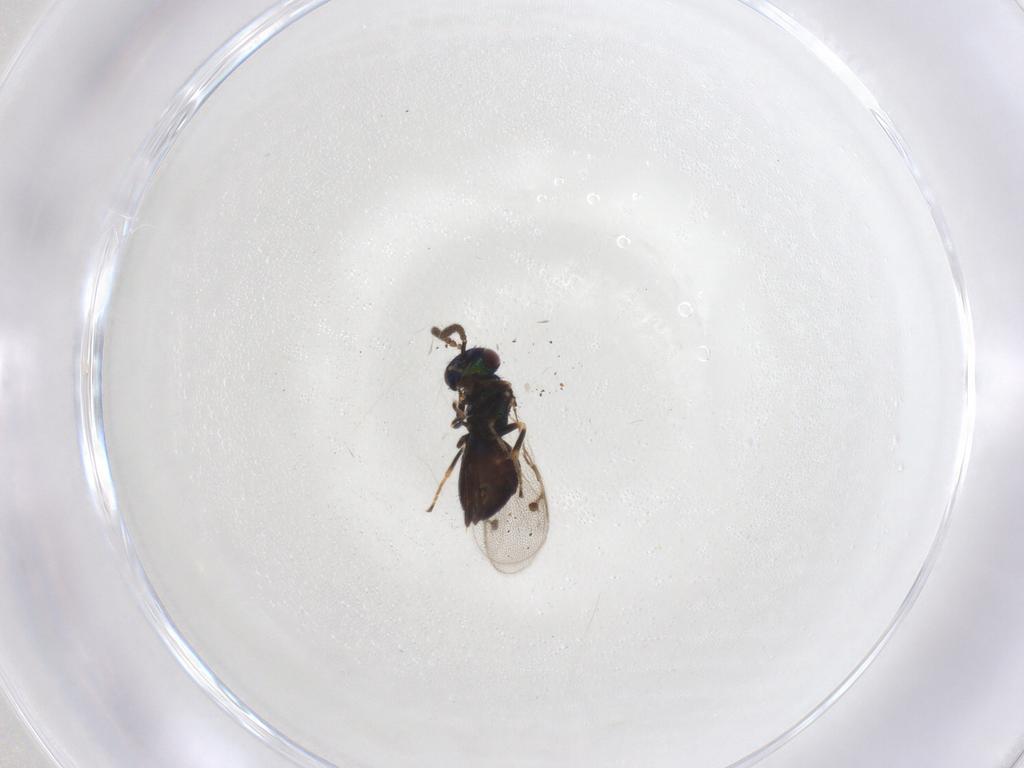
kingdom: Animalia
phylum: Arthropoda
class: Insecta
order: Hymenoptera
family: Pirenidae
